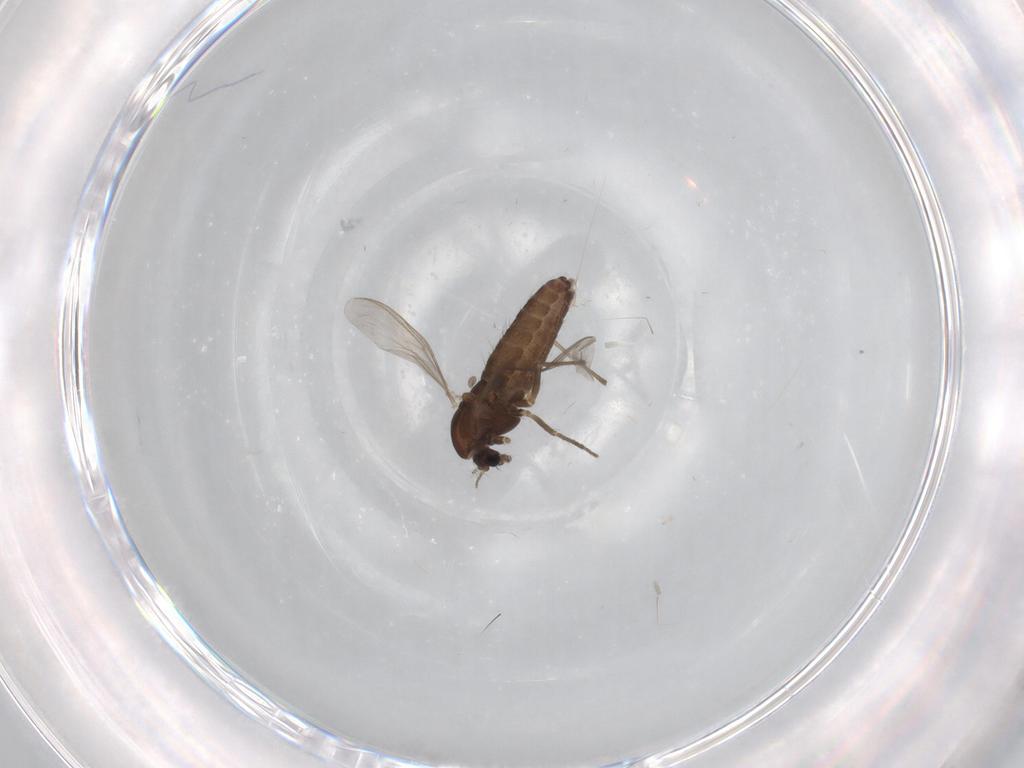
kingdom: Animalia
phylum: Arthropoda
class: Insecta
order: Diptera
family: Chironomidae
